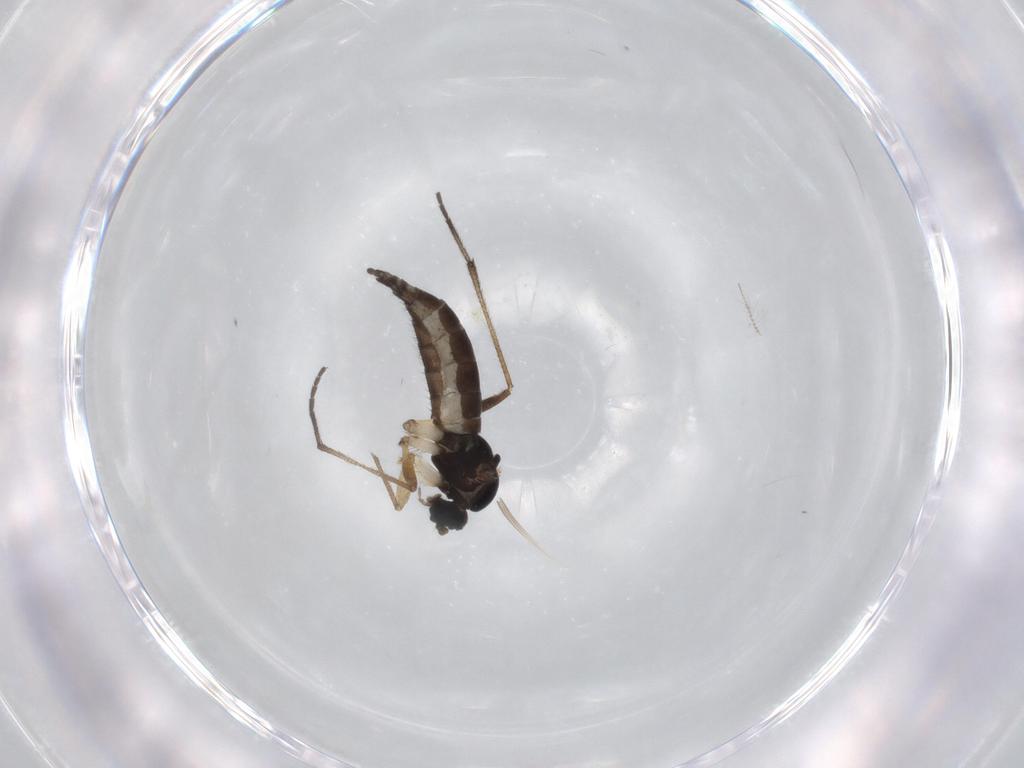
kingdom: Animalia
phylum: Arthropoda
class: Insecta
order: Diptera
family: Sciaridae
